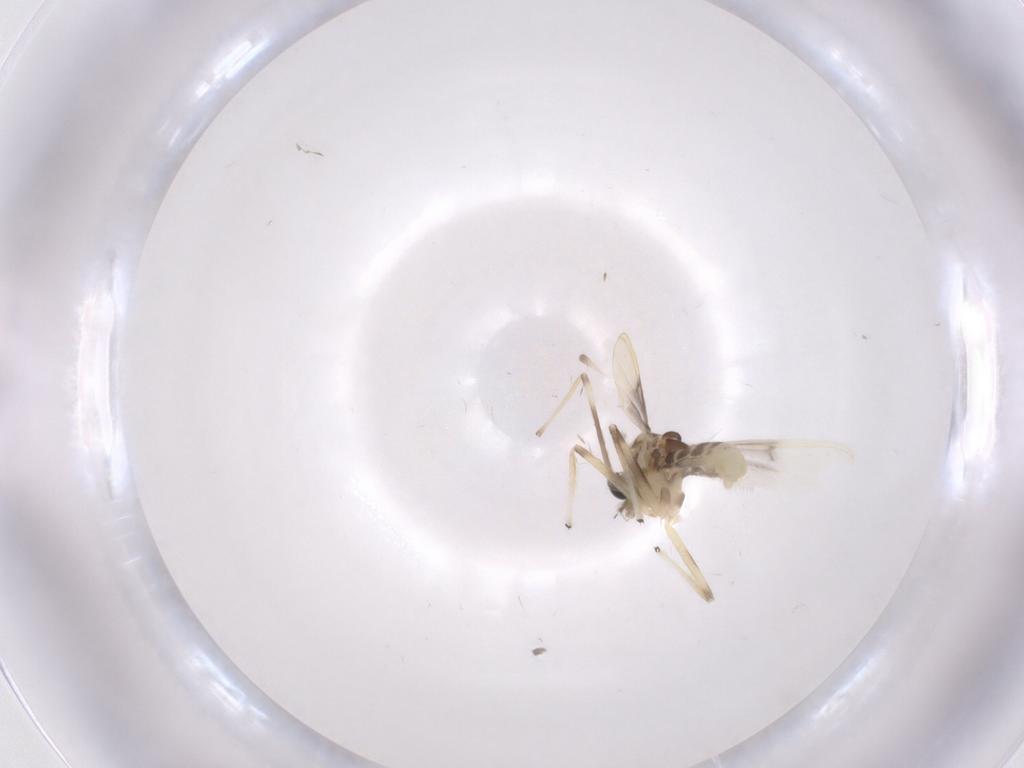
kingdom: Animalia
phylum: Arthropoda
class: Insecta
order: Diptera
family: Chironomidae
